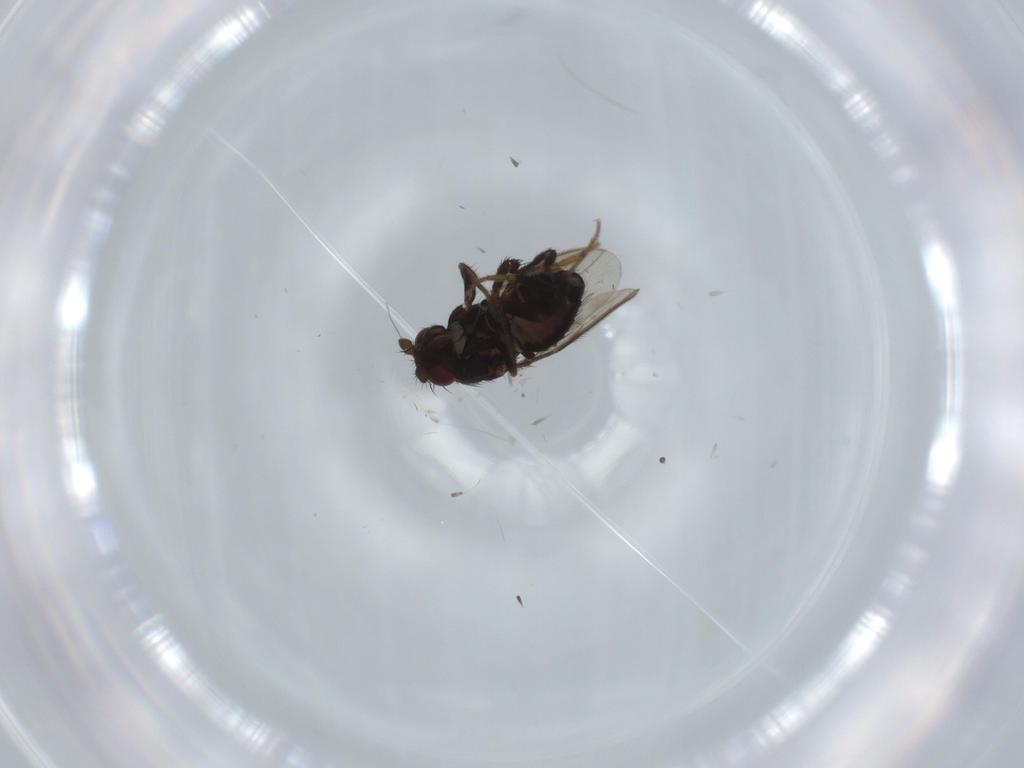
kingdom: Animalia
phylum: Arthropoda
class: Insecta
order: Diptera
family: Sphaeroceridae
